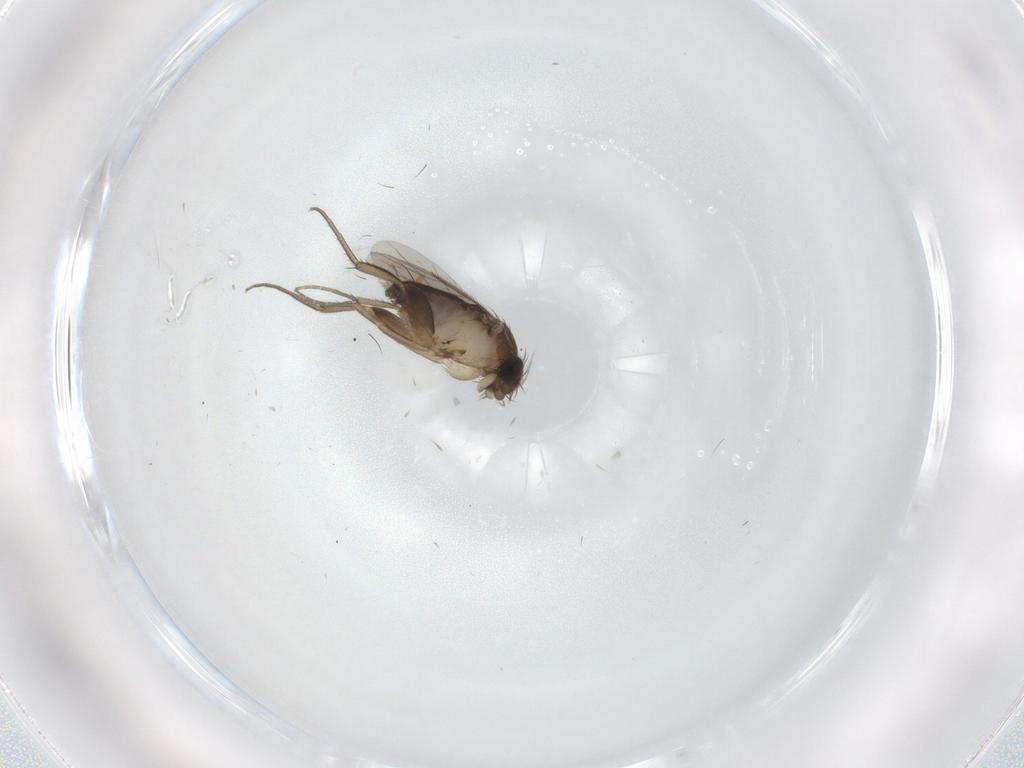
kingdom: Animalia
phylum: Arthropoda
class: Insecta
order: Diptera
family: Phoridae
